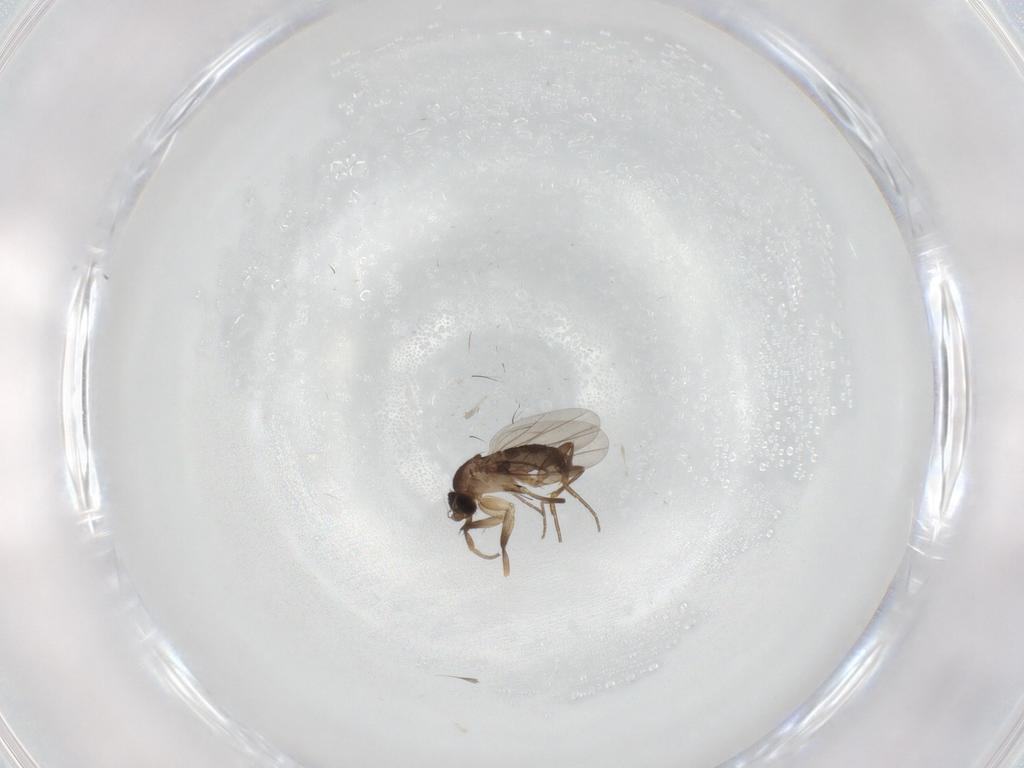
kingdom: Animalia
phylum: Arthropoda
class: Insecta
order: Diptera
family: Phoridae
